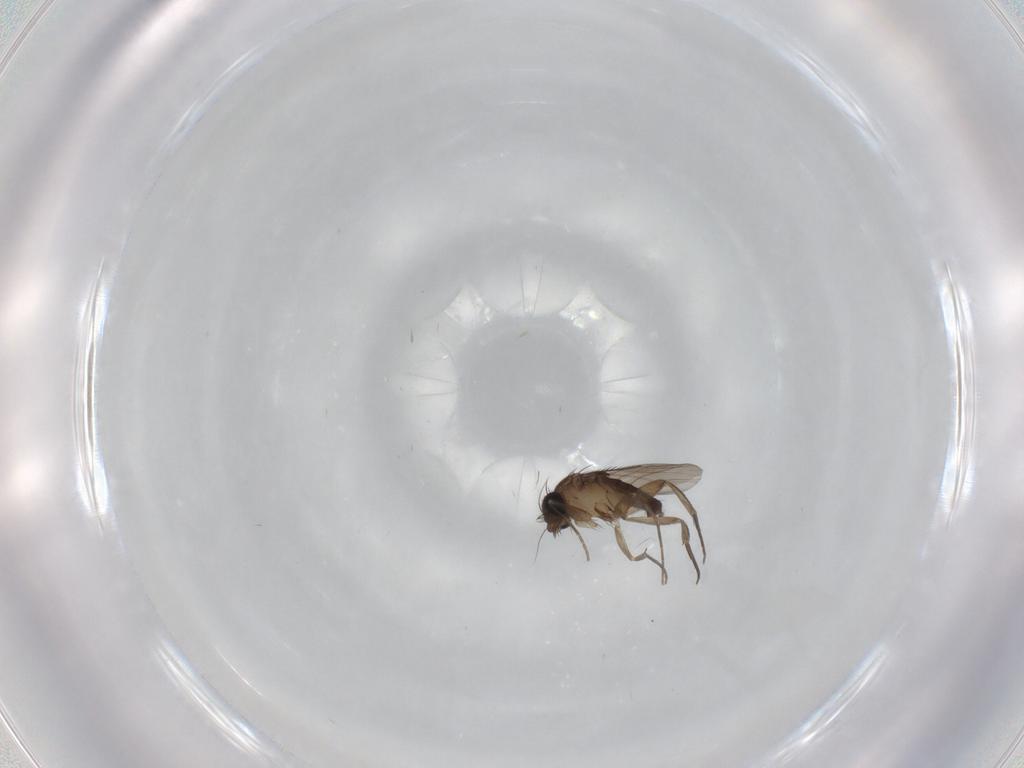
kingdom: Animalia
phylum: Arthropoda
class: Insecta
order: Diptera
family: Phoridae
